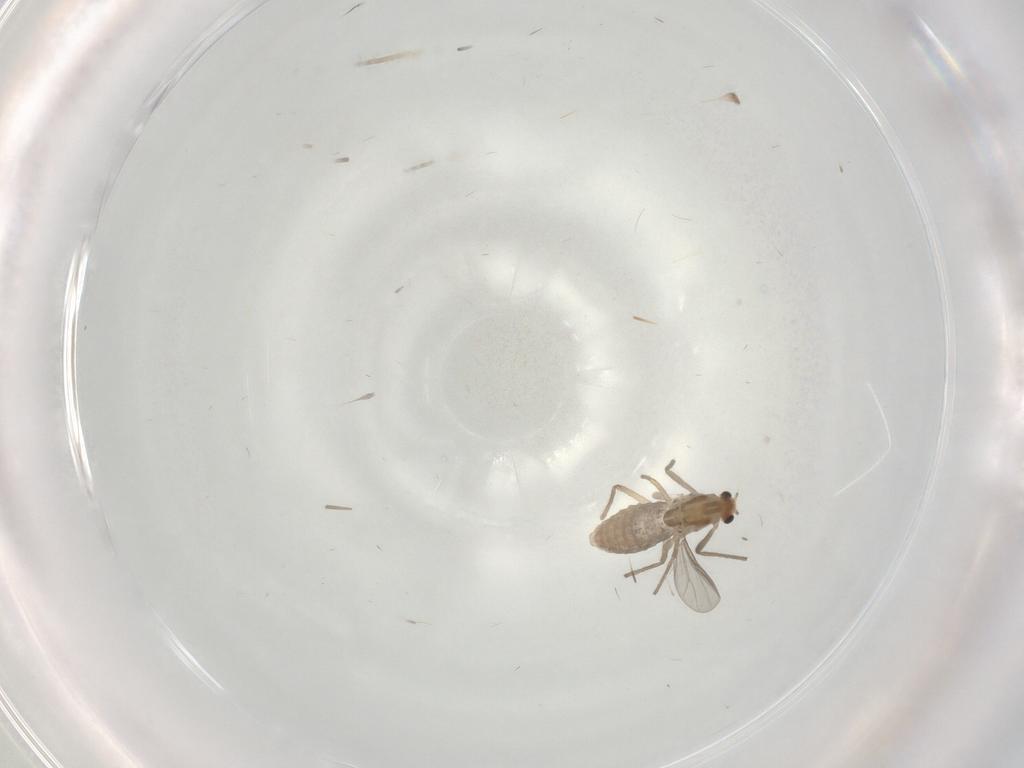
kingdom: Animalia
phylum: Arthropoda
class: Insecta
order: Diptera
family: Chironomidae
